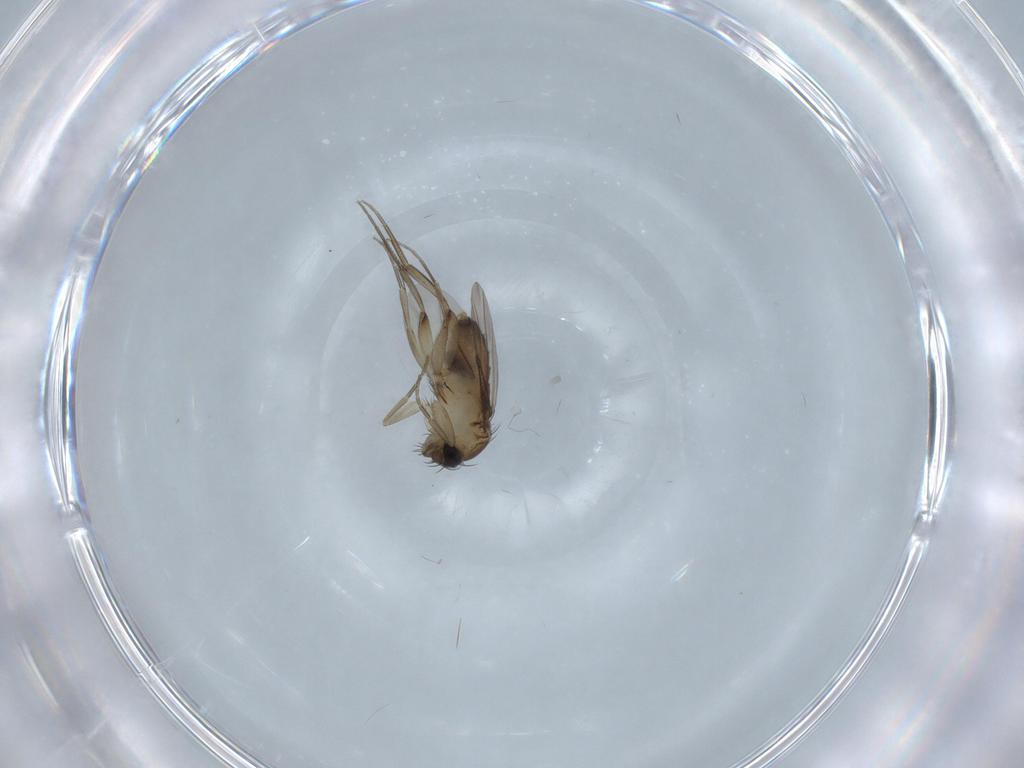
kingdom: Animalia
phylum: Arthropoda
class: Insecta
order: Diptera
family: Phoridae
